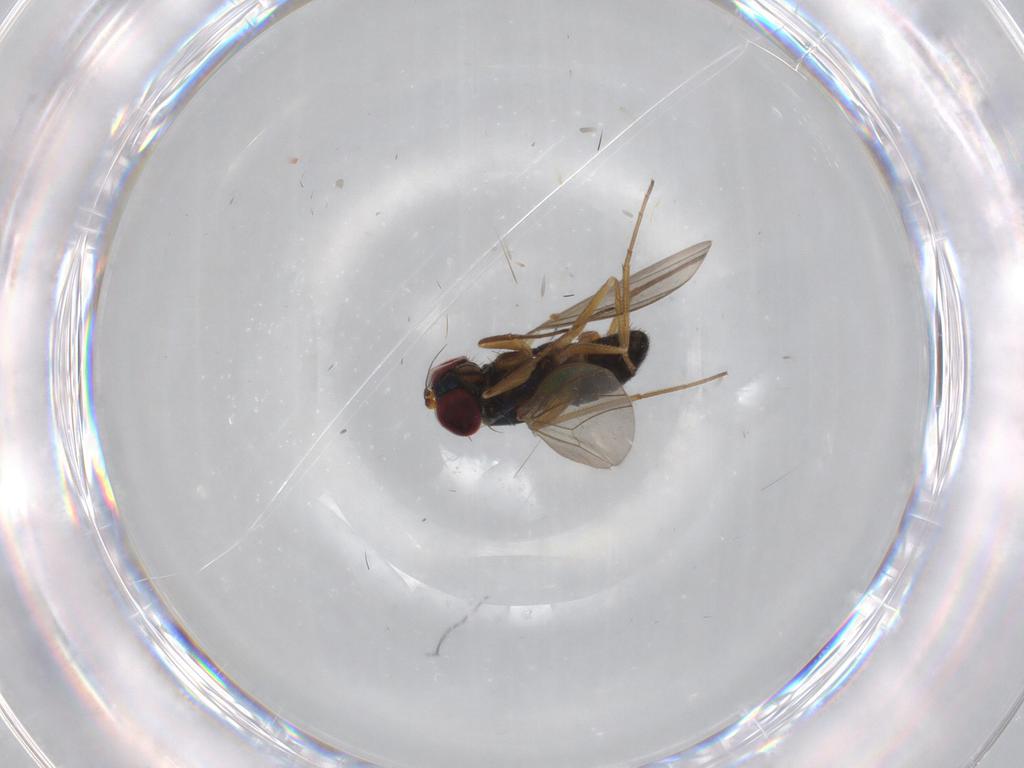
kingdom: Animalia
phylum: Arthropoda
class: Insecta
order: Diptera
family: Dolichopodidae
